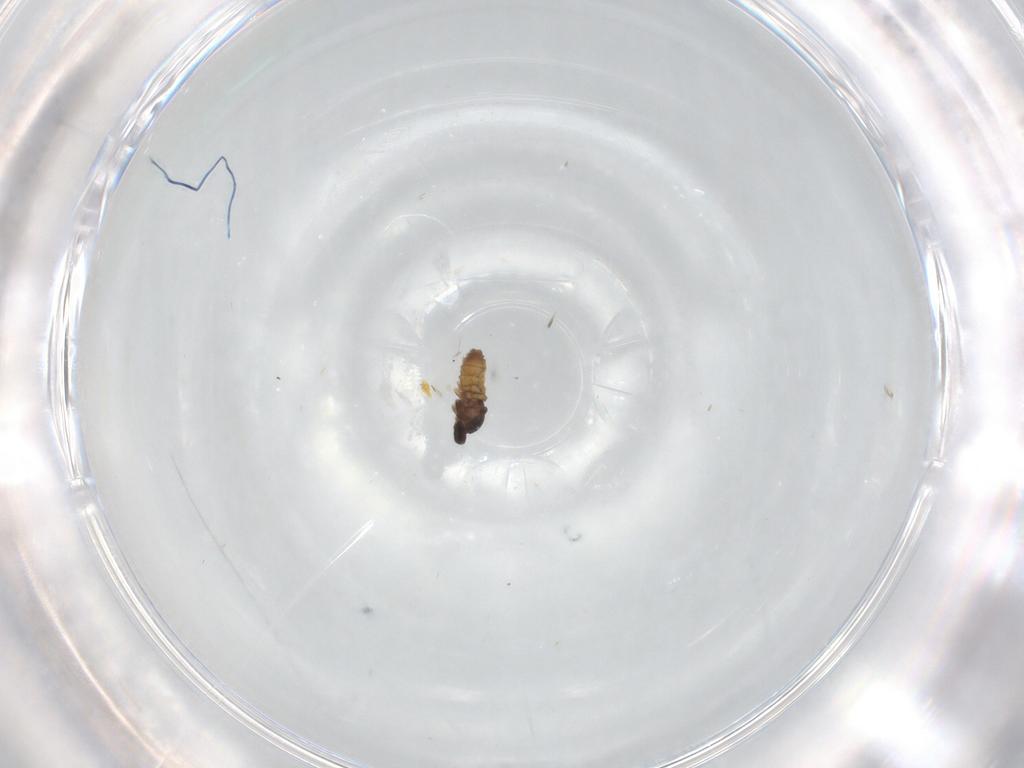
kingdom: Animalia
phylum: Arthropoda
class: Insecta
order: Diptera
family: Cecidomyiidae
